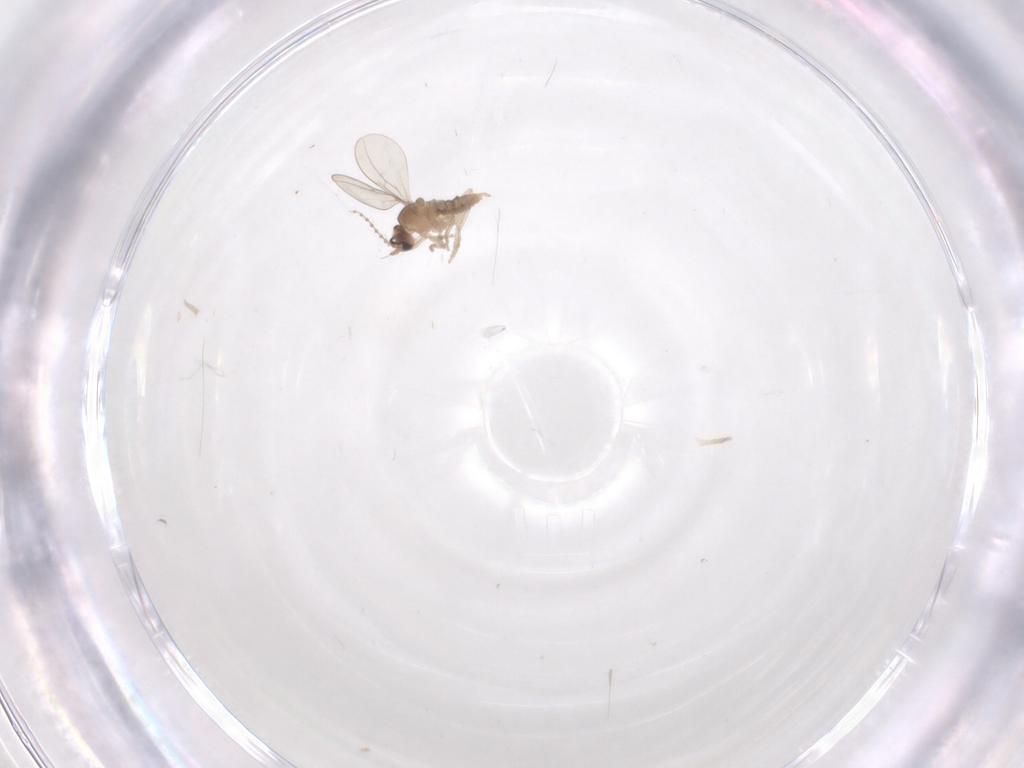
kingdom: Animalia
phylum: Arthropoda
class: Insecta
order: Diptera
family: Cecidomyiidae
